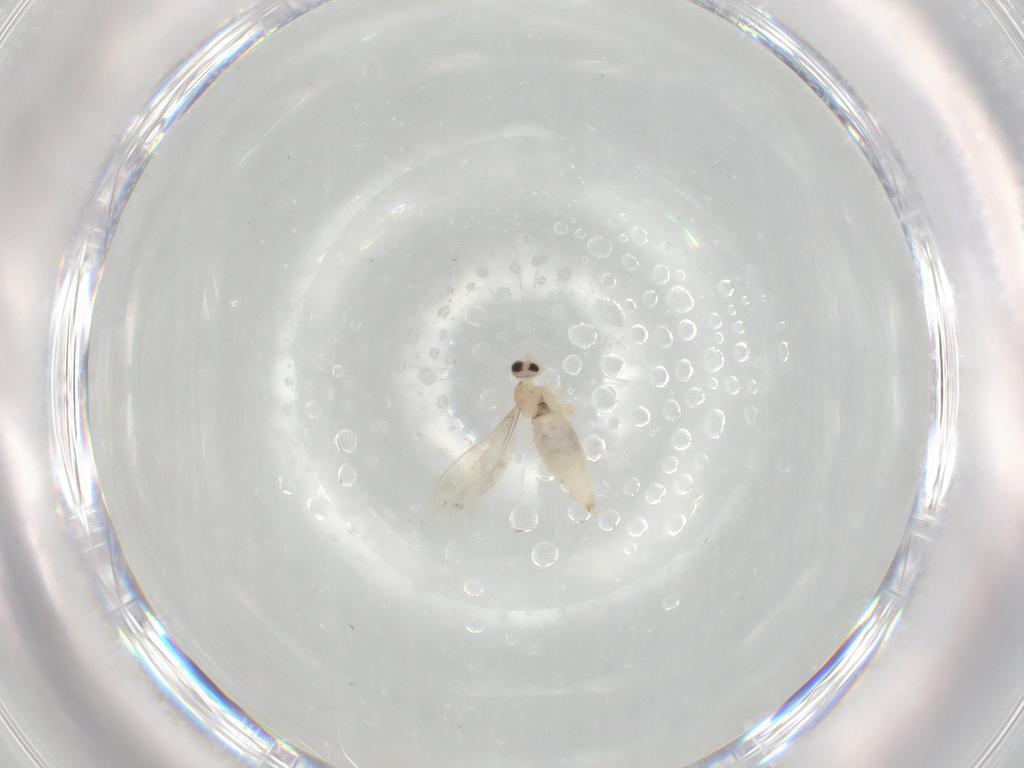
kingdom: Animalia
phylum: Arthropoda
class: Insecta
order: Diptera
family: Cecidomyiidae
